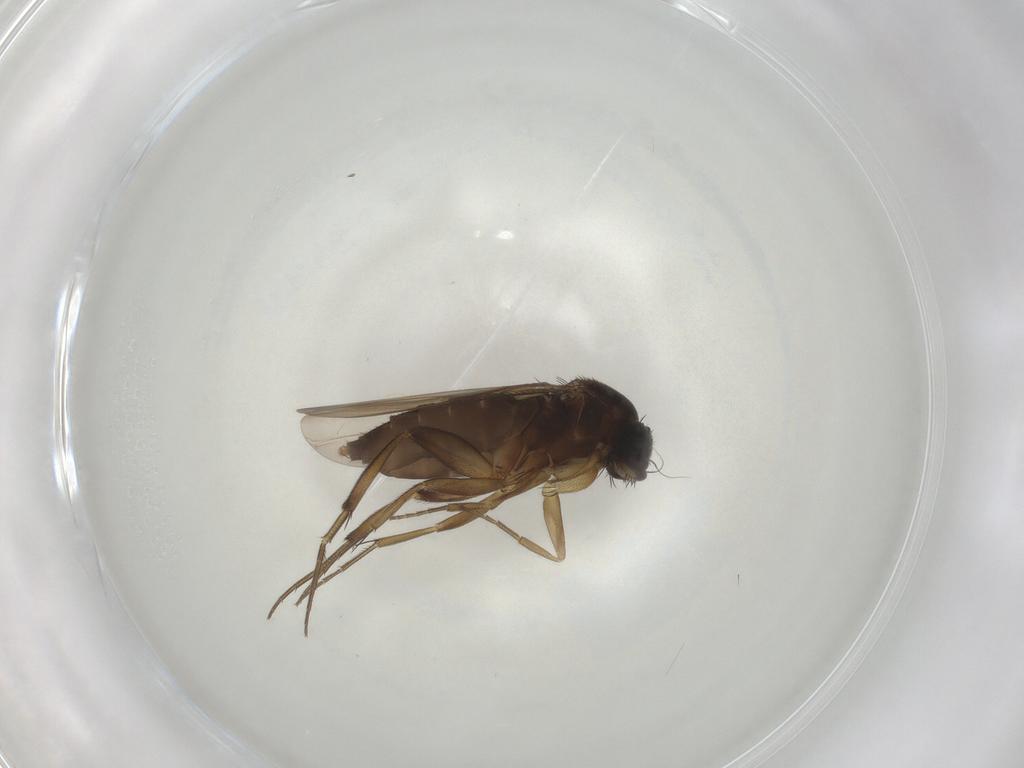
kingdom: Animalia
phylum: Arthropoda
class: Insecta
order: Diptera
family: Phoridae
